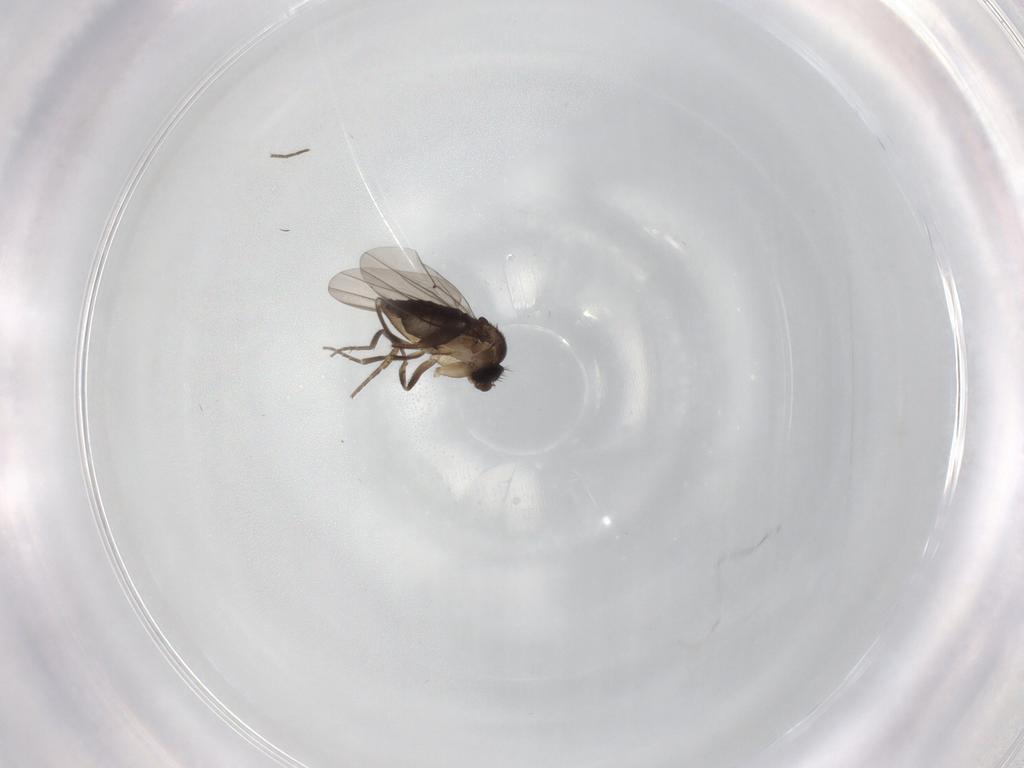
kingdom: Animalia
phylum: Arthropoda
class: Insecta
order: Diptera
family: Phoridae
